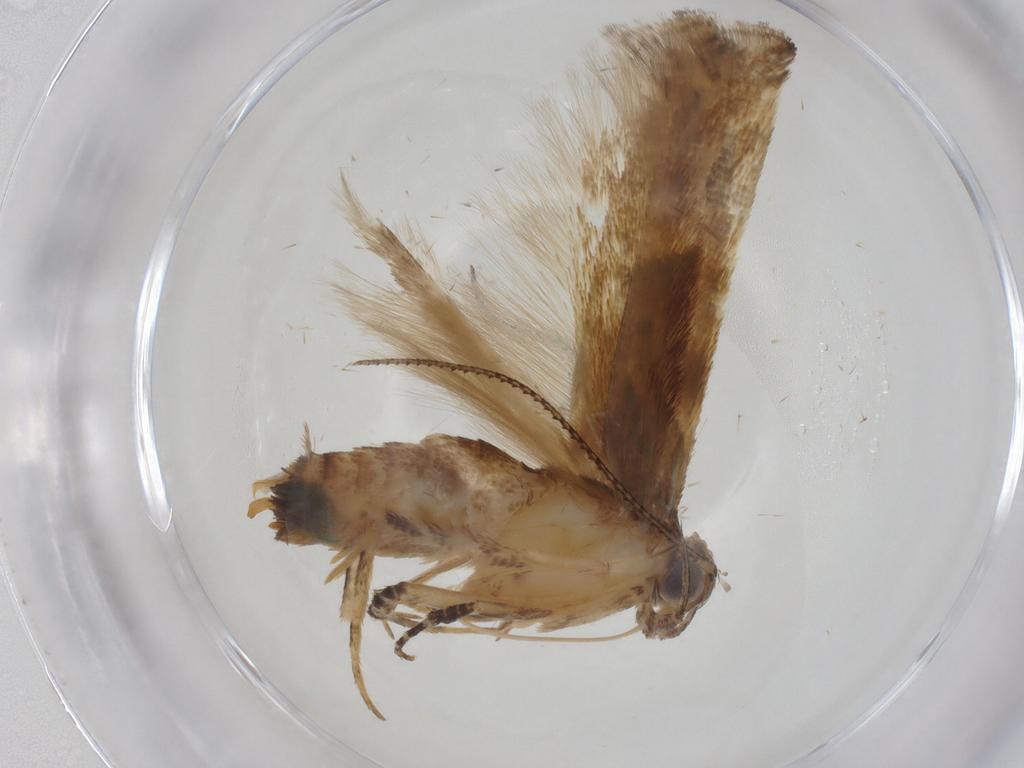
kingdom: Animalia
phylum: Arthropoda
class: Insecta
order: Lepidoptera
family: Gelechiidae
